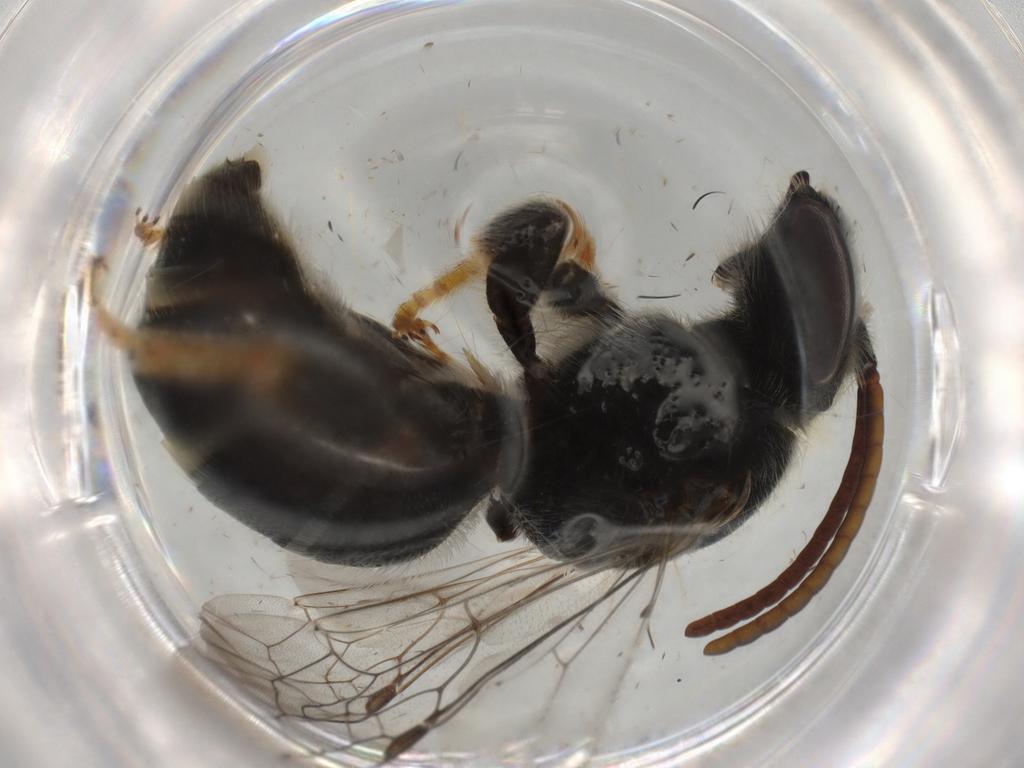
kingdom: Animalia
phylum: Arthropoda
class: Insecta
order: Hymenoptera
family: Halictidae
